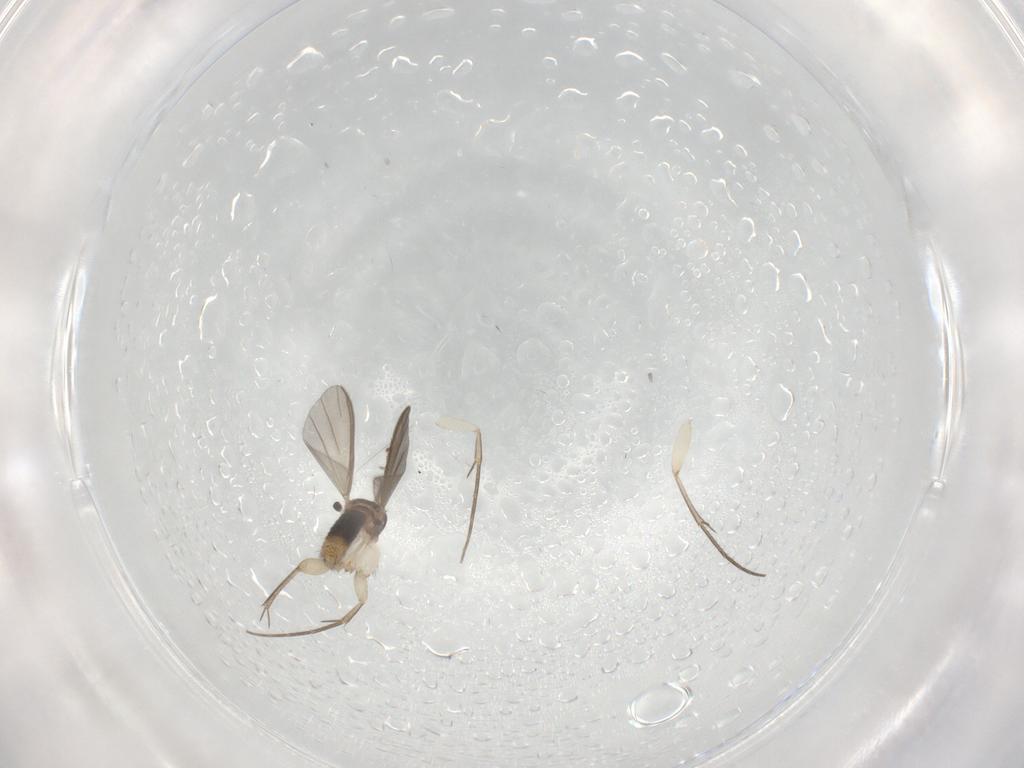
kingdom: Animalia
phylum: Arthropoda
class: Insecta
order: Diptera
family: Mycetophilidae
